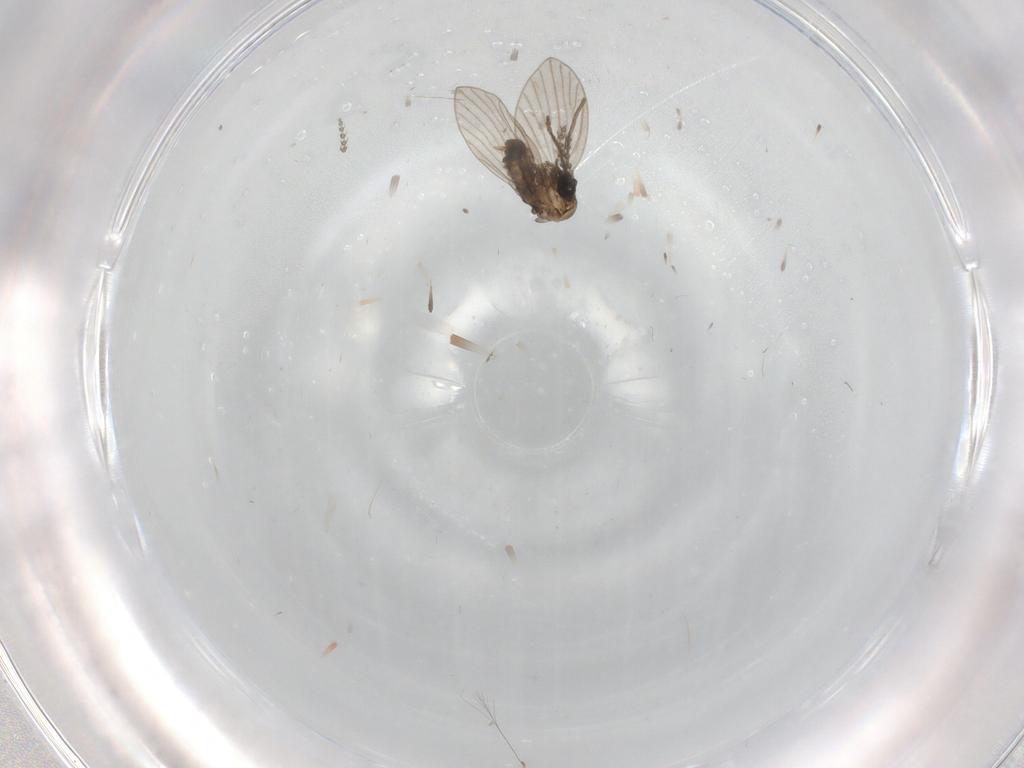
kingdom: Animalia
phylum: Arthropoda
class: Insecta
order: Diptera
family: Psychodidae
